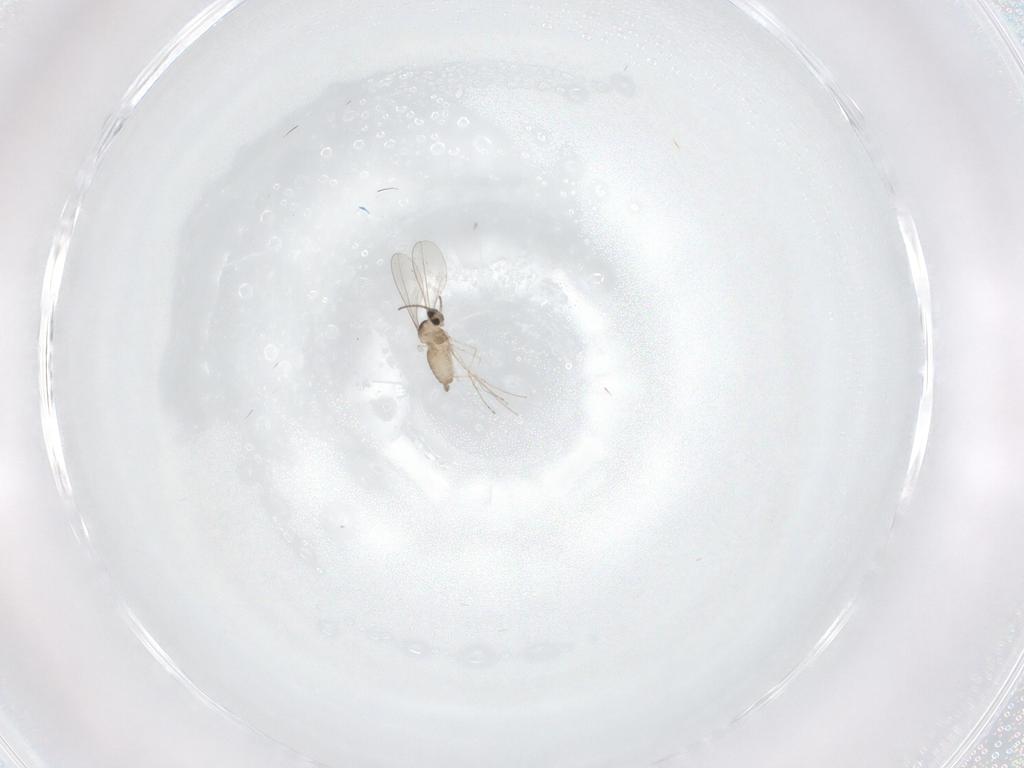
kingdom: Animalia
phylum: Arthropoda
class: Insecta
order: Diptera
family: Cecidomyiidae
